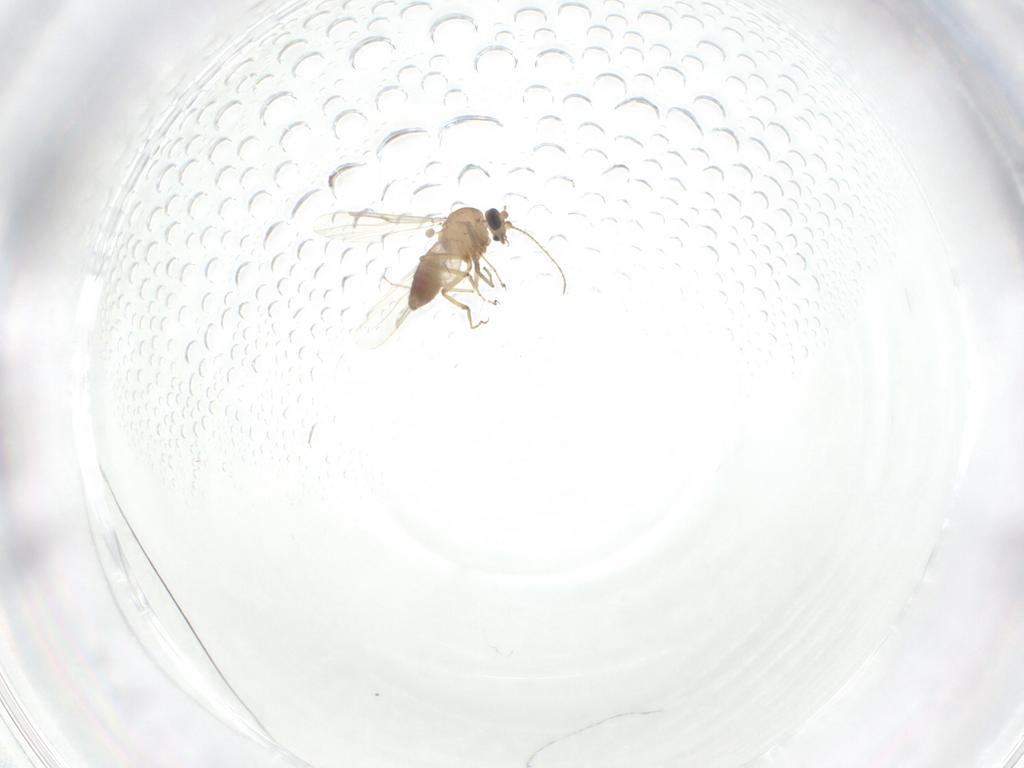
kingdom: Animalia
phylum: Arthropoda
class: Insecta
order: Diptera
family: Ceratopogonidae
